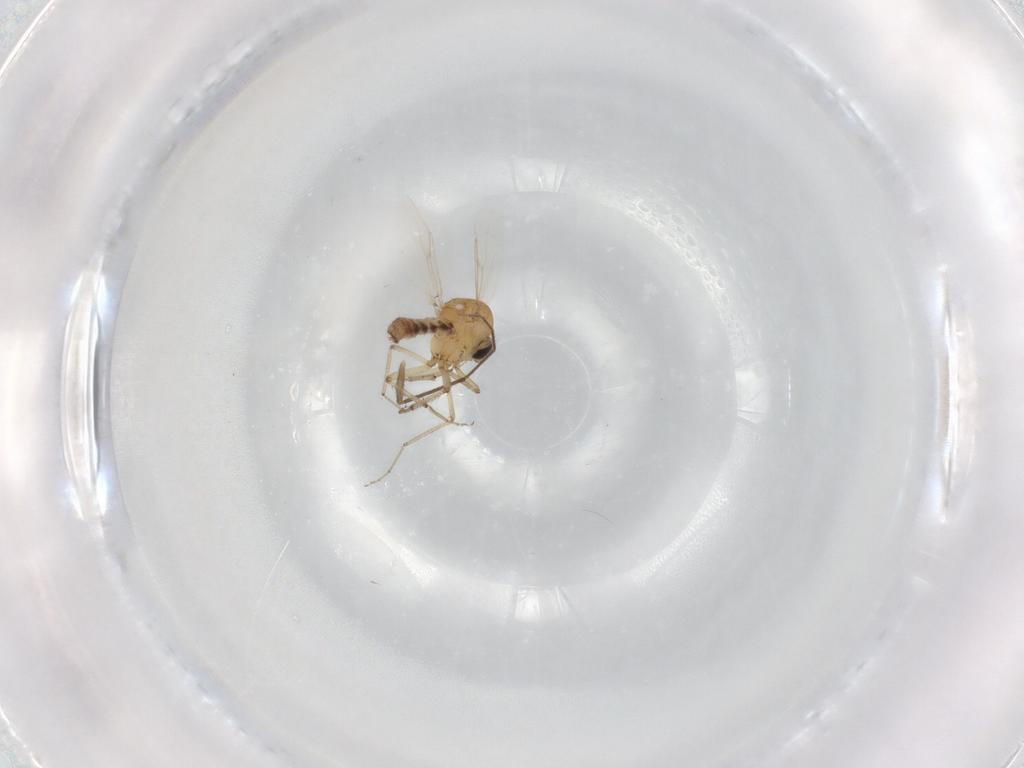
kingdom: Animalia
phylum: Arthropoda
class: Insecta
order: Diptera
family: Ceratopogonidae
